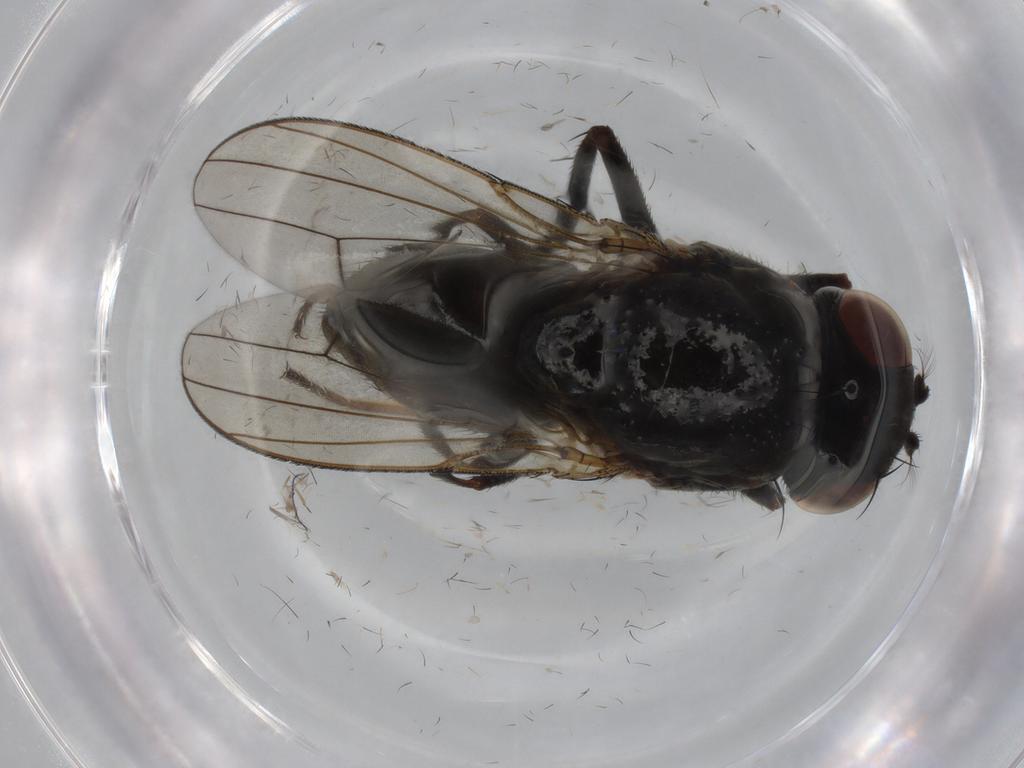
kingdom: Animalia
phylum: Arthropoda
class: Insecta
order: Diptera
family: Ephydridae
